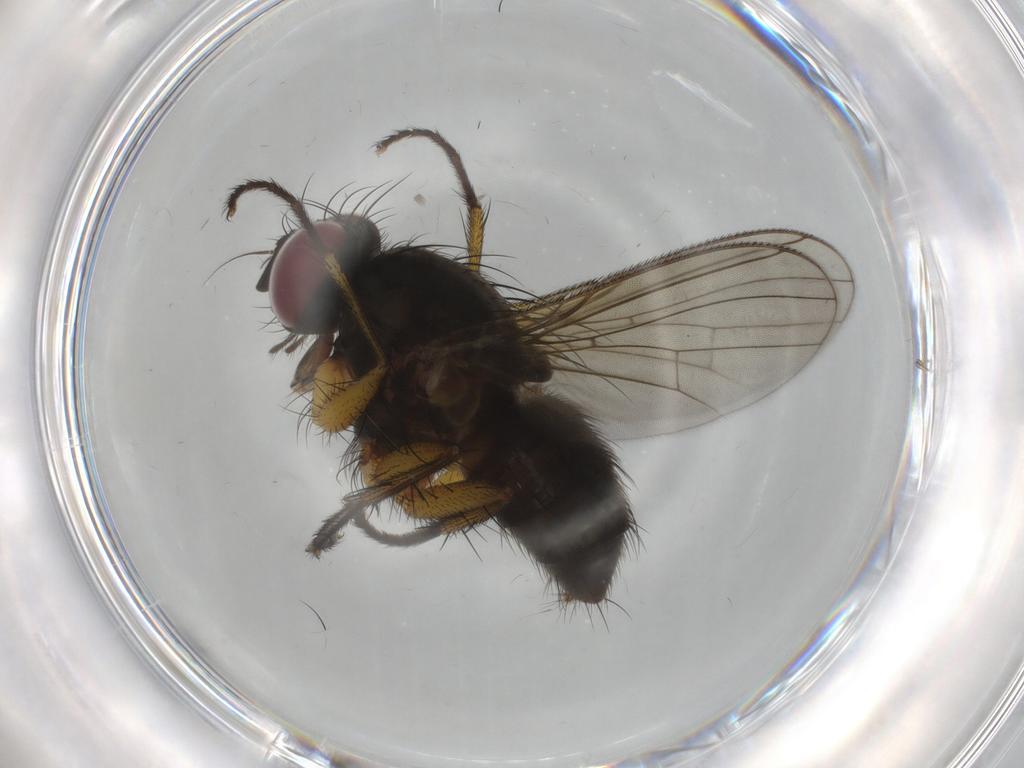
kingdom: Animalia
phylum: Arthropoda
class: Insecta
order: Diptera
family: Muscidae
